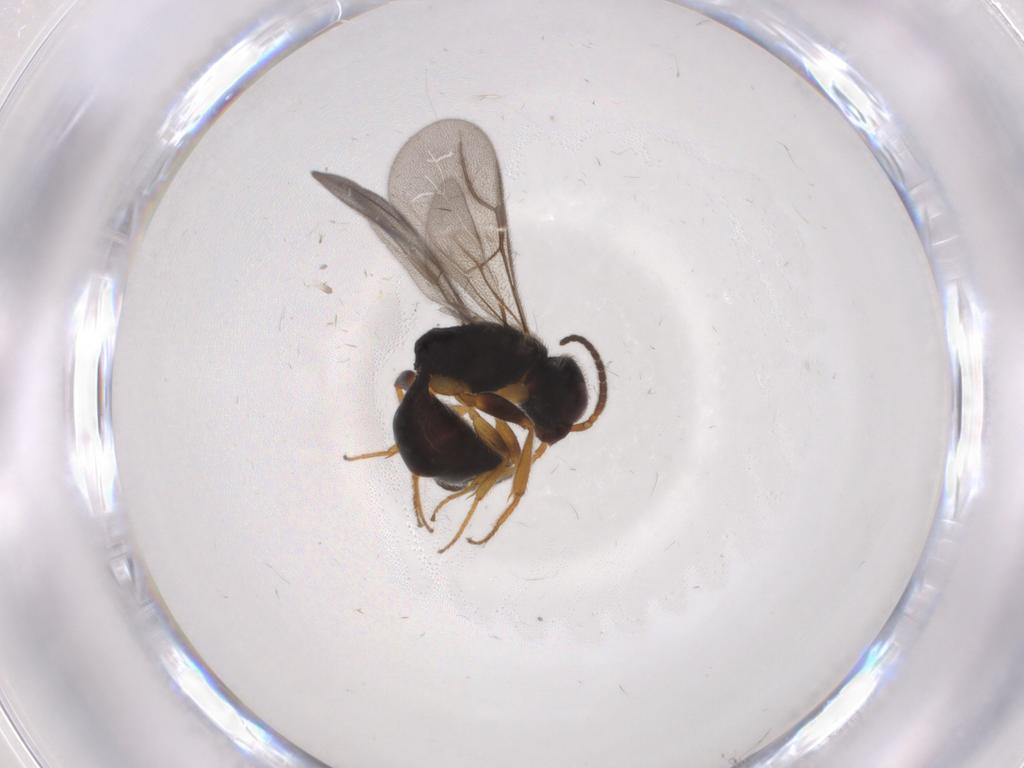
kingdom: Animalia
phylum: Arthropoda
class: Insecta
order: Hymenoptera
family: Bethylidae
